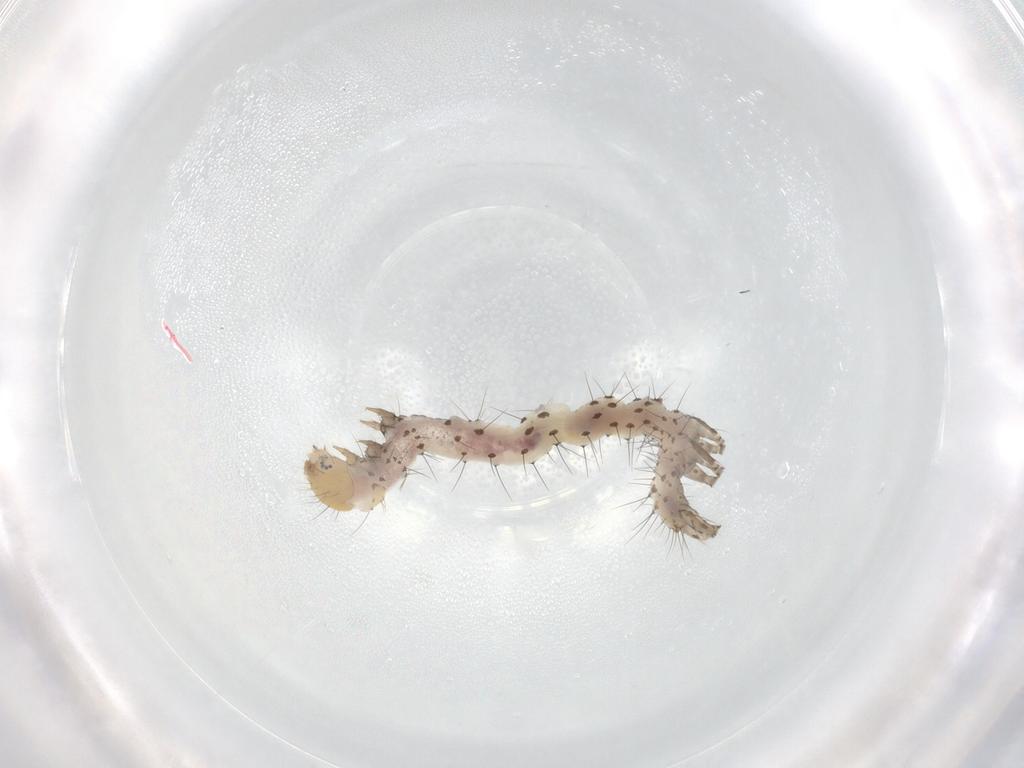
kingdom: Animalia
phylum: Arthropoda
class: Insecta
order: Lepidoptera
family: Erebidae
